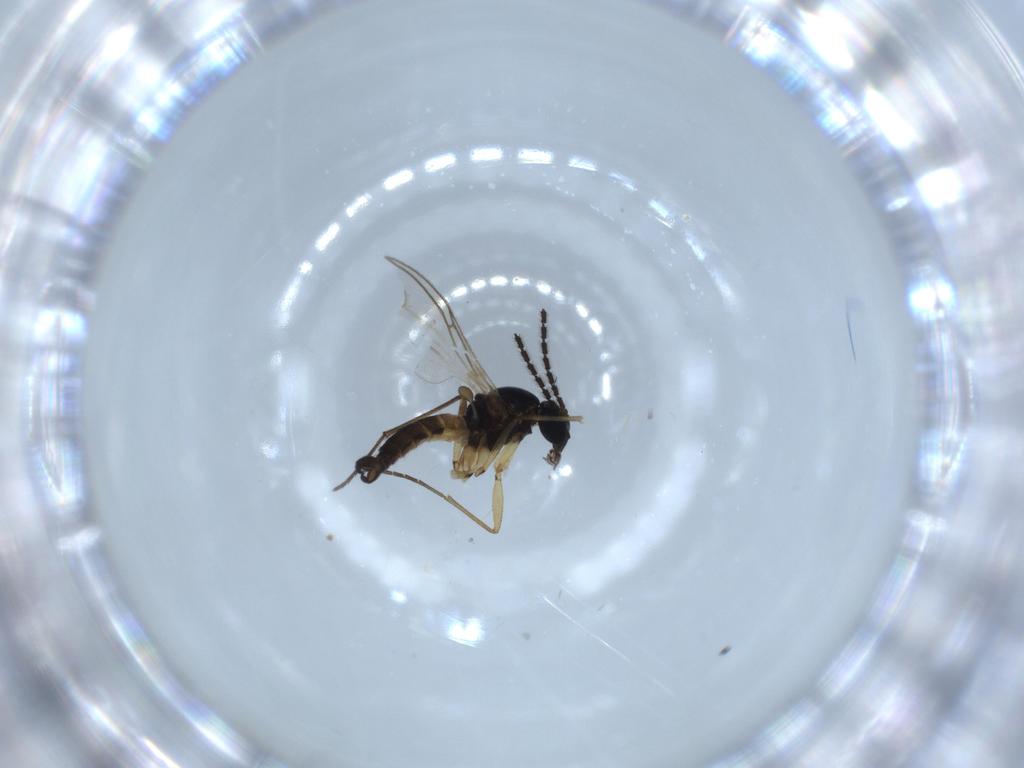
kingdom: Animalia
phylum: Arthropoda
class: Insecta
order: Diptera
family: Sciaridae
